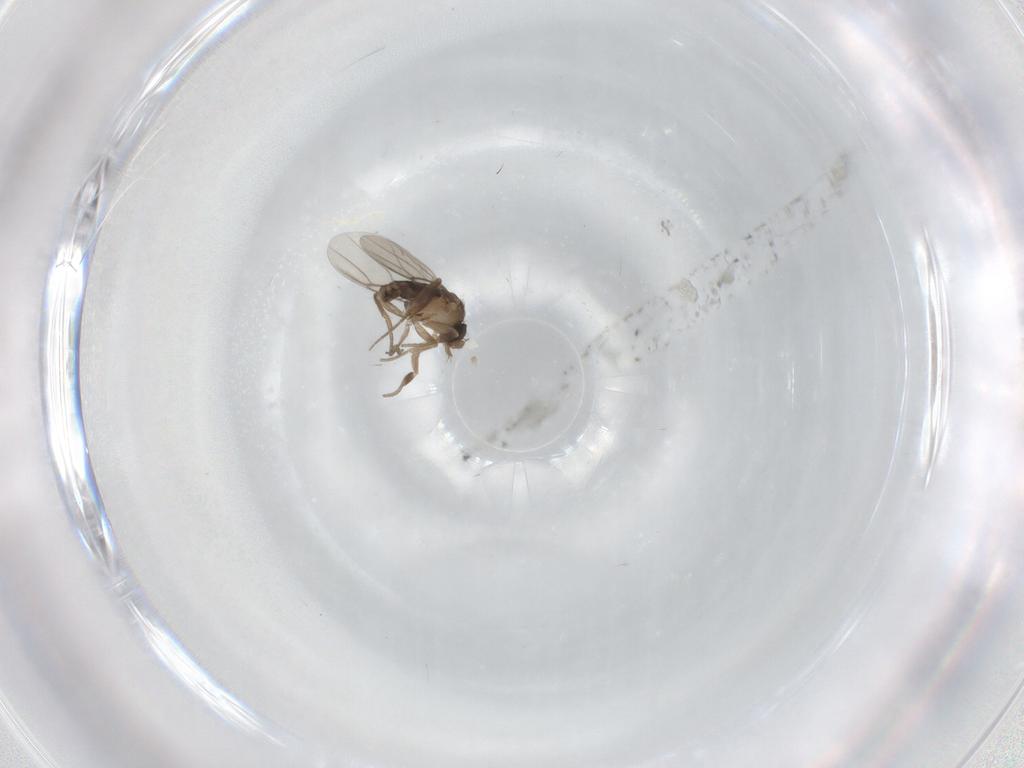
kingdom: Animalia
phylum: Arthropoda
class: Insecta
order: Diptera
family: Phoridae
